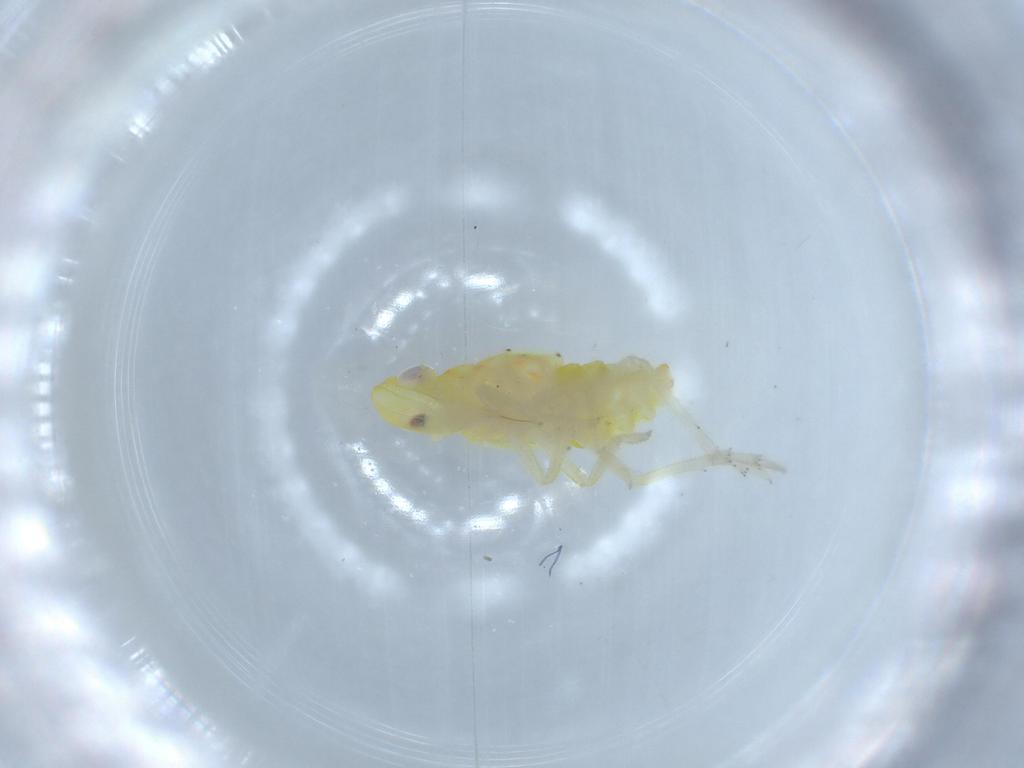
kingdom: Animalia
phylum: Arthropoda
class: Insecta
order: Hemiptera
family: Tropiduchidae
